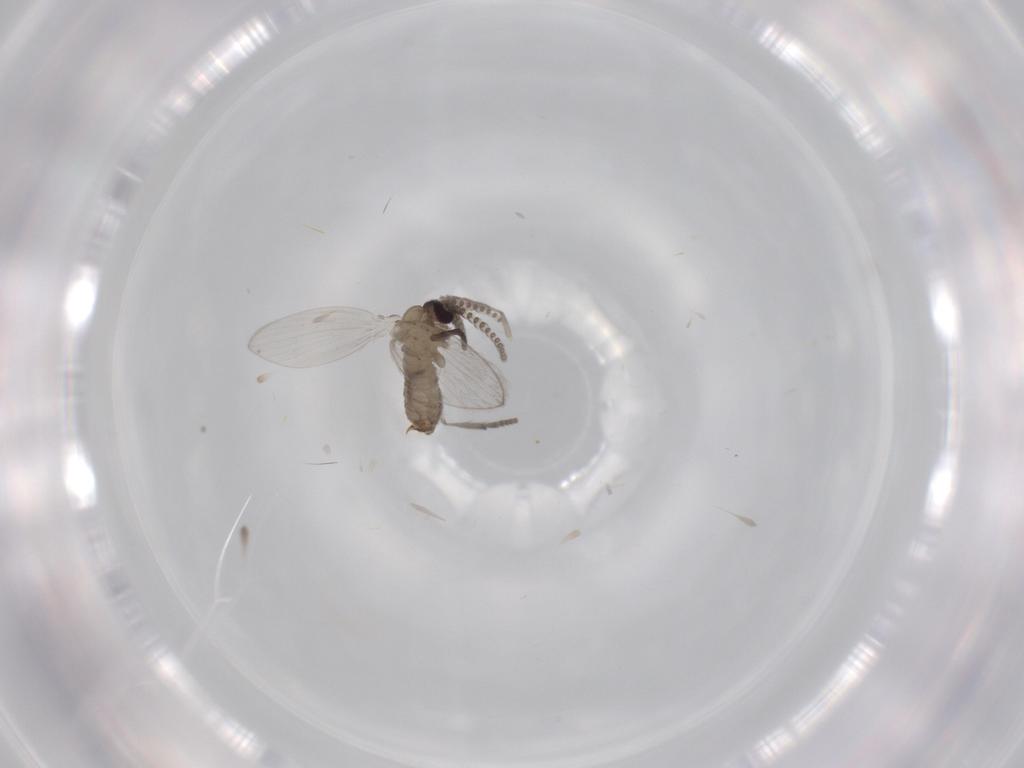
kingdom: Animalia
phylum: Arthropoda
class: Insecta
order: Diptera
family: Psychodidae
